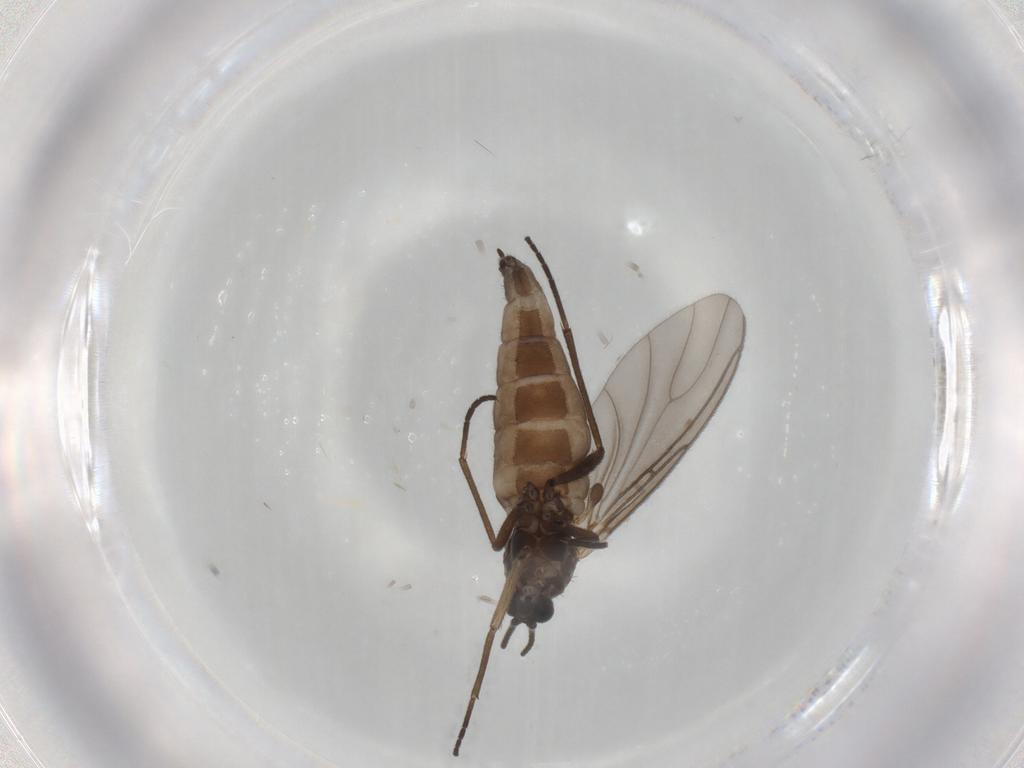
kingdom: Animalia
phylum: Arthropoda
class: Insecta
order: Diptera
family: Sciaridae
